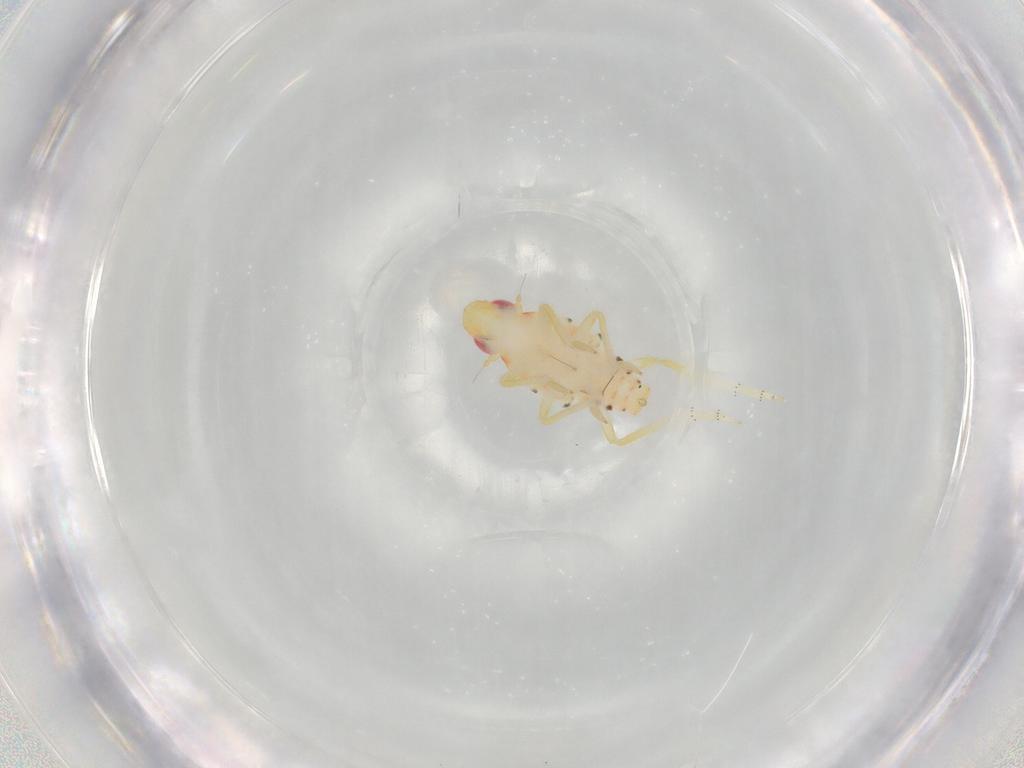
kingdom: Animalia
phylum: Arthropoda
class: Insecta
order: Hemiptera
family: Tropiduchidae
